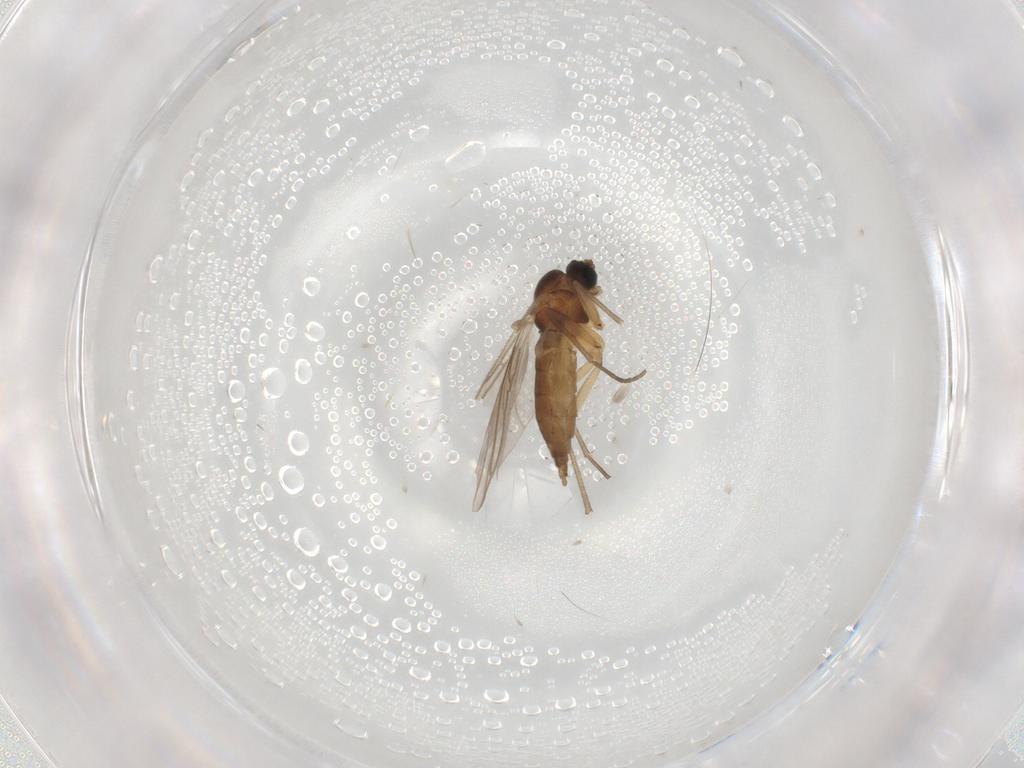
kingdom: Animalia
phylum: Arthropoda
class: Insecta
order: Diptera
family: Sciaridae
